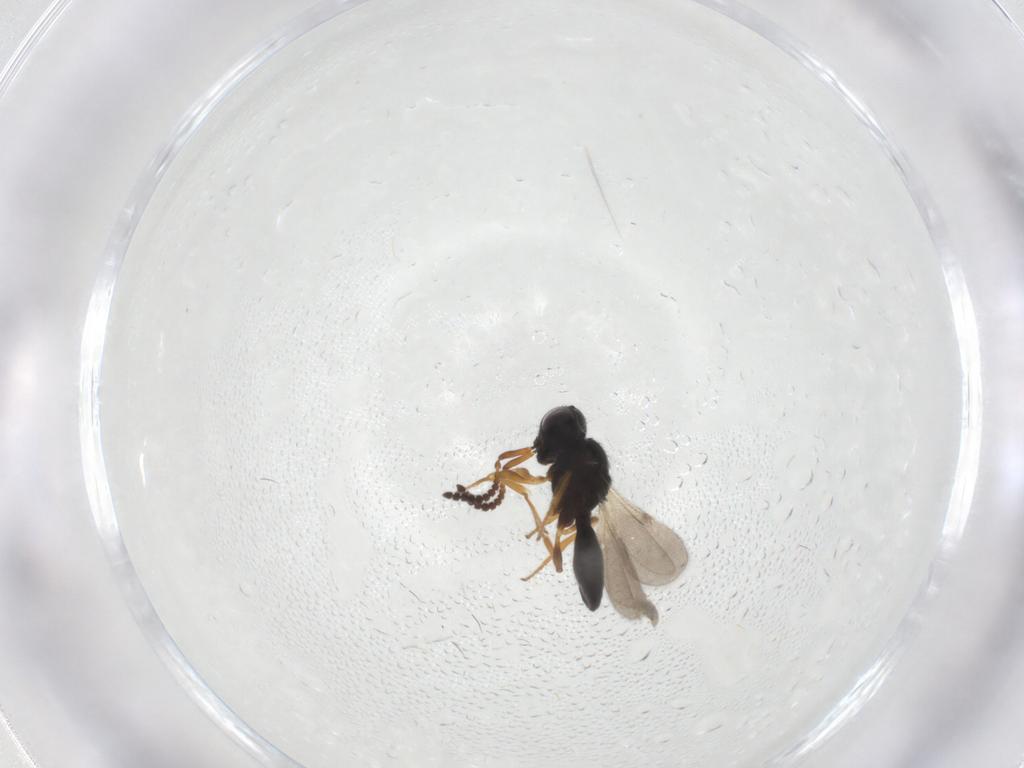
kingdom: Animalia
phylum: Arthropoda
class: Insecta
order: Hymenoptera
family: Scelionidae
